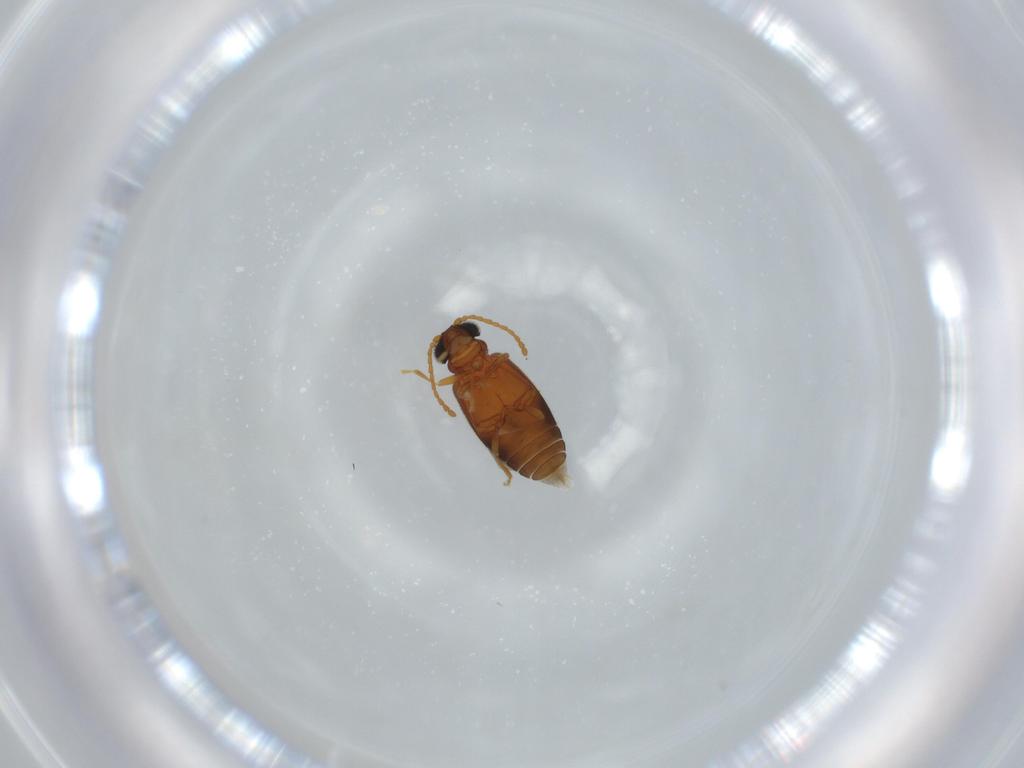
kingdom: Animalia
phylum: Arthropoda
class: Insecta
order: Coleoptera
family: Aderidae
